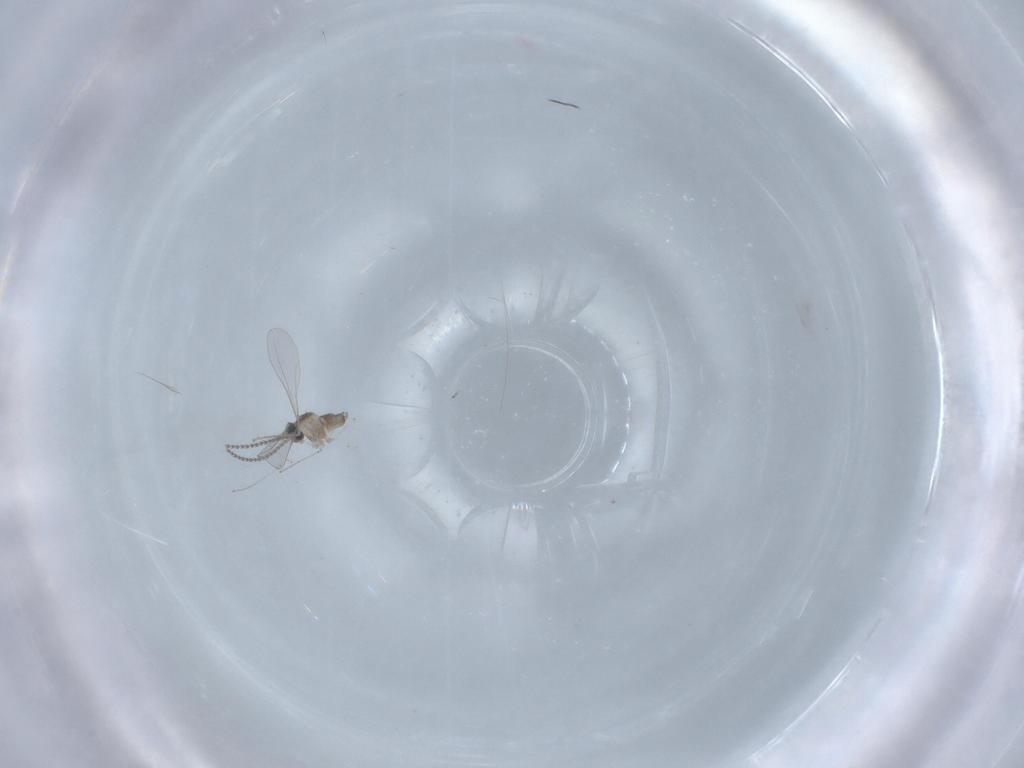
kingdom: Animalia
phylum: Arthropoda
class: Insecta
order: Diptera
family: Cecidomyiidae
